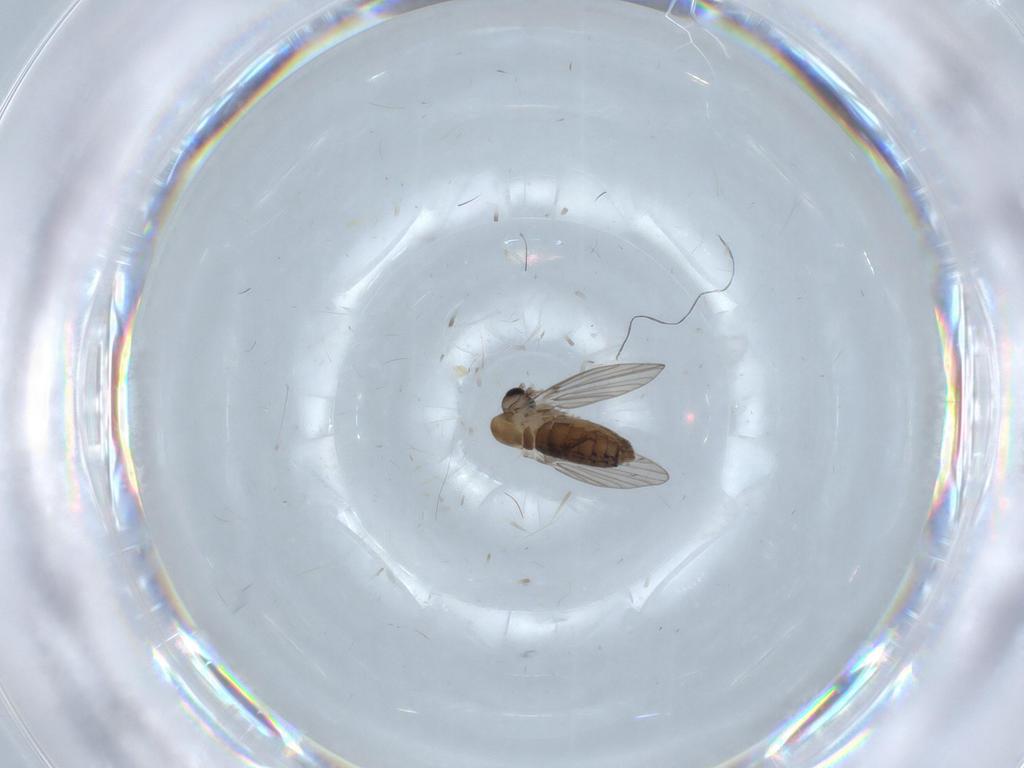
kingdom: Animalia
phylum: Arthropoda
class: Insecta
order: Diptera
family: Psychodidae
